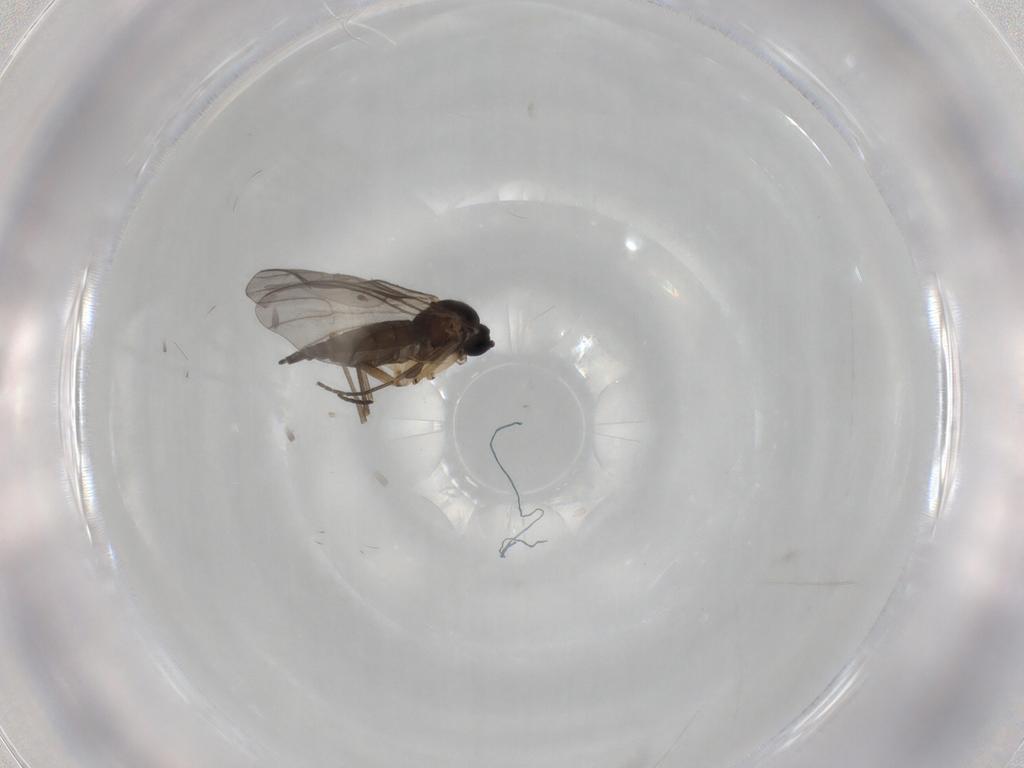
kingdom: Animalia
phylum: Arthropoda
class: Insecta
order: Diptera
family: Sciaridae
